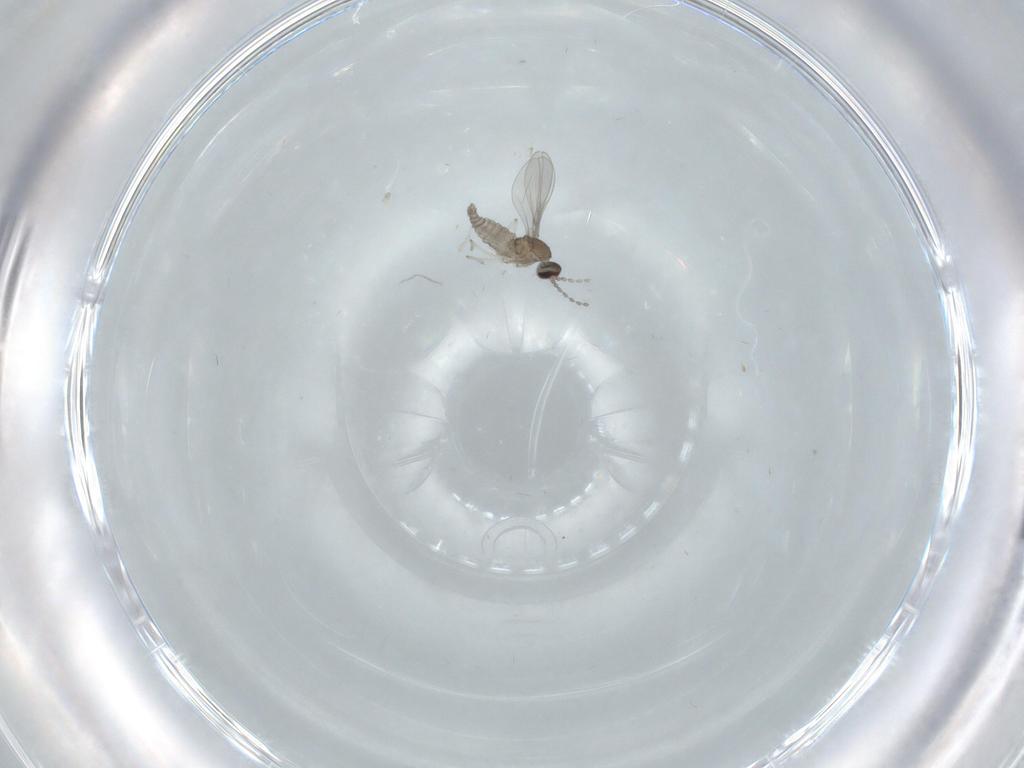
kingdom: Animalia
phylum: Arthropoda
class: Insecta
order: Diptera
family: Cecidomyiidae
